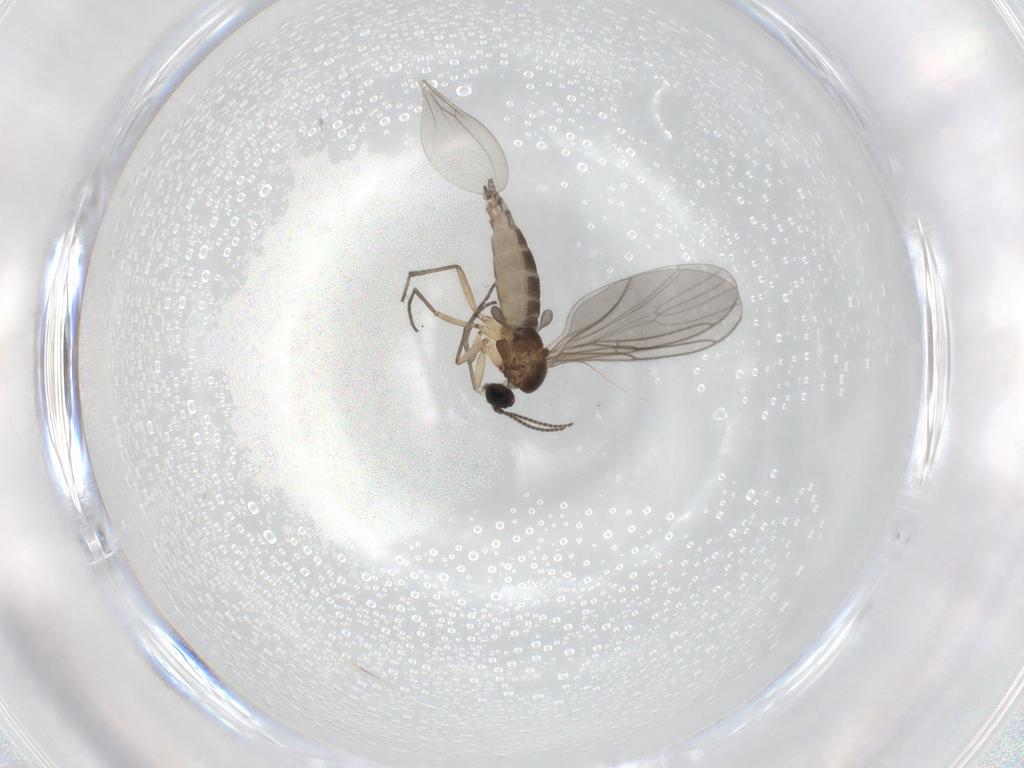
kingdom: Animalia
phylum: Arthropoda
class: Insecta
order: Diptera
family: Sciaridae
